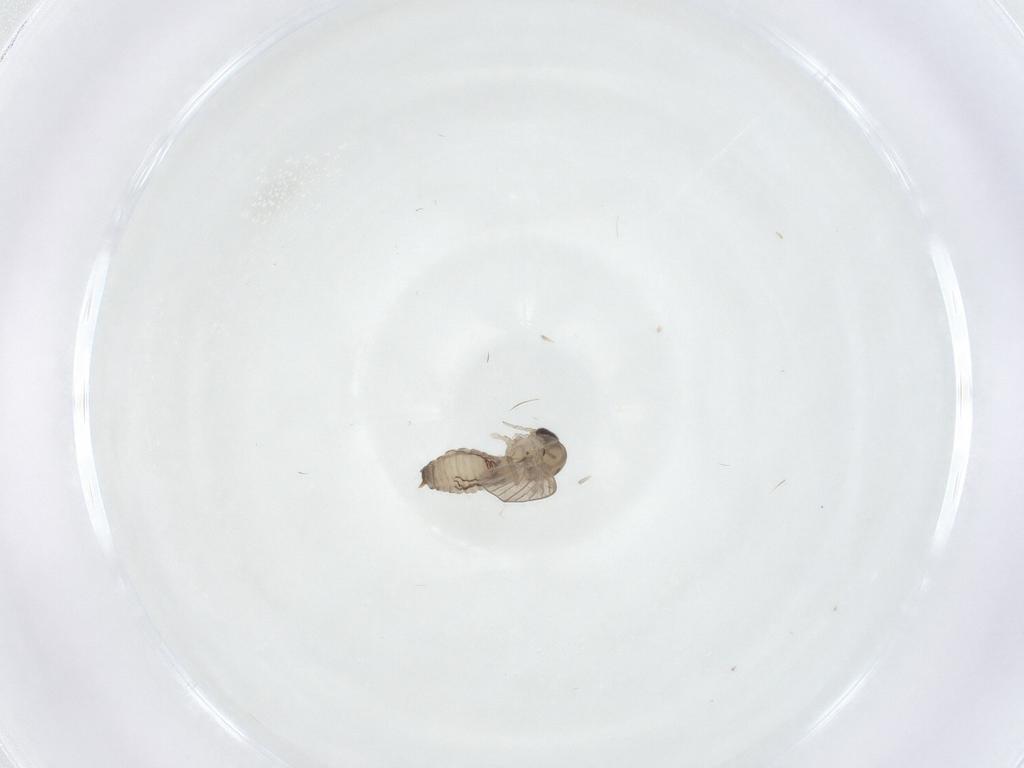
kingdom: Animalia
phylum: Arthropoda
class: Insecta
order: Diptera
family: Psychodidae
